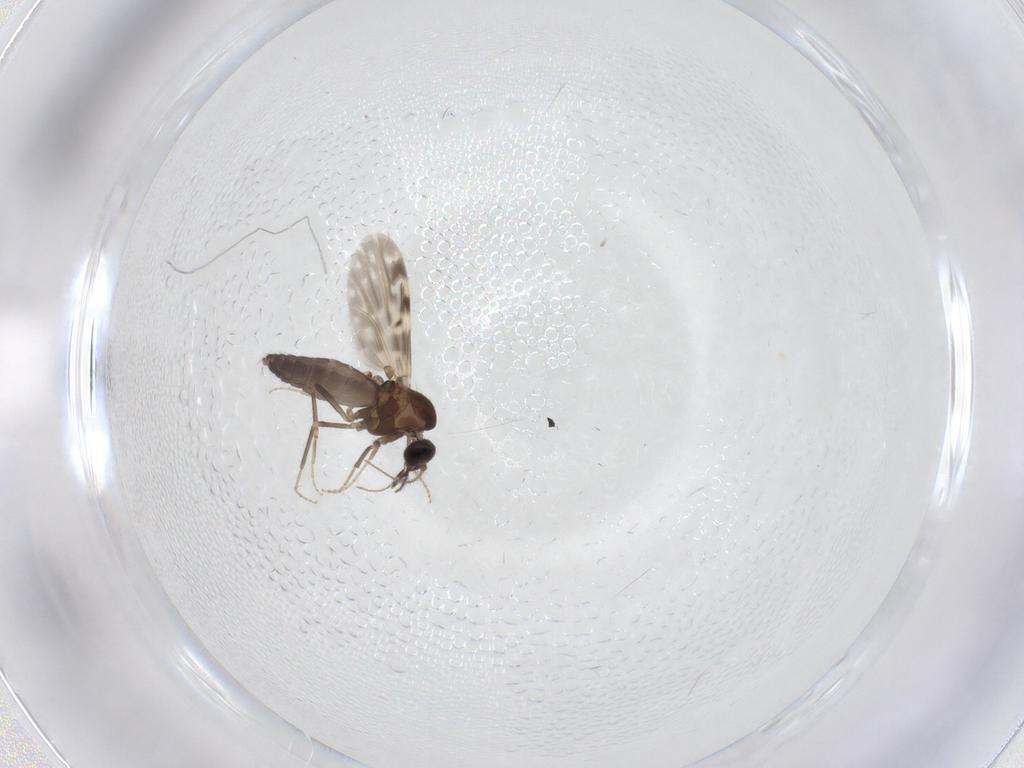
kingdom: Animalia
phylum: Arthropoda
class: Insecta
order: Diptera
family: Ceratopogonidae
